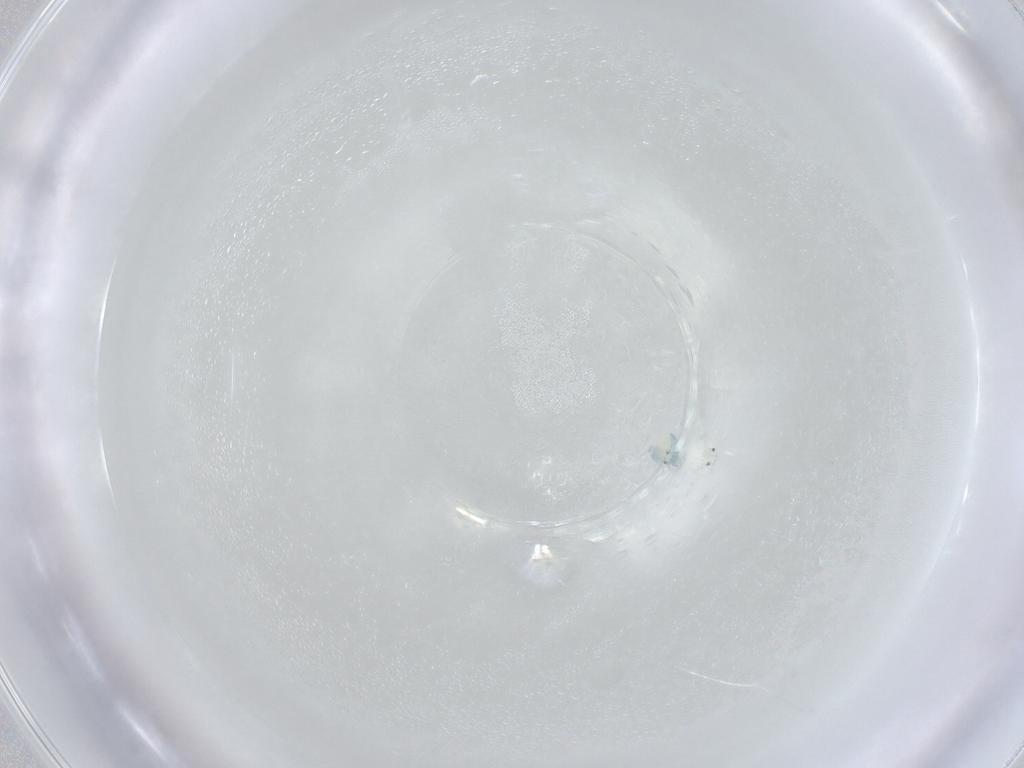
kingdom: Animalia
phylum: Arthropoda
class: Arachnida
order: Trombidiformes
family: Arrenuridae
